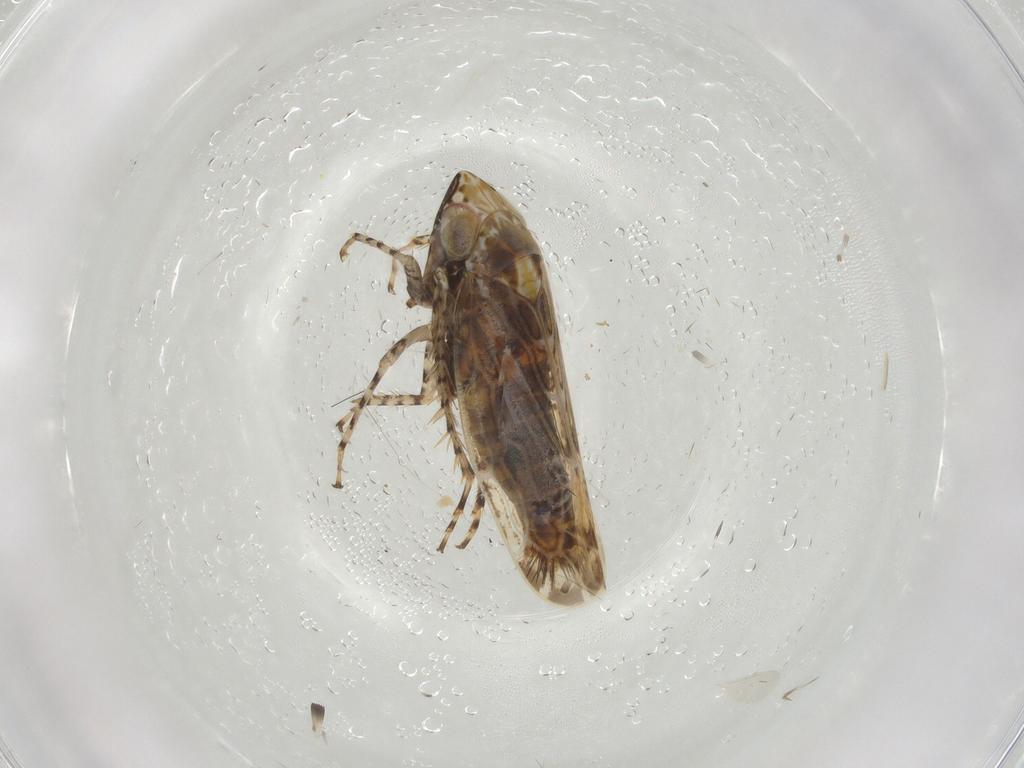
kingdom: Animalia
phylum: Arthropoda
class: Insecta
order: Hemiptera
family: Cicadellidae
